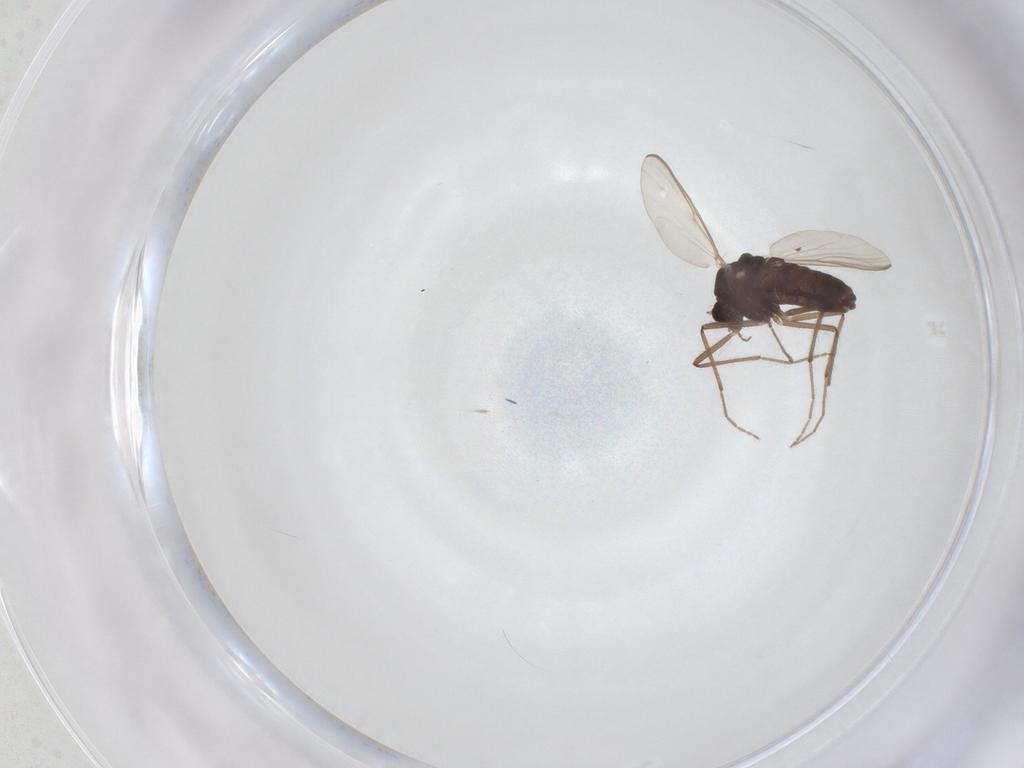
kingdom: Animalia
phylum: Arthropoda
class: Insecta
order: Diptera
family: Chironomidae
